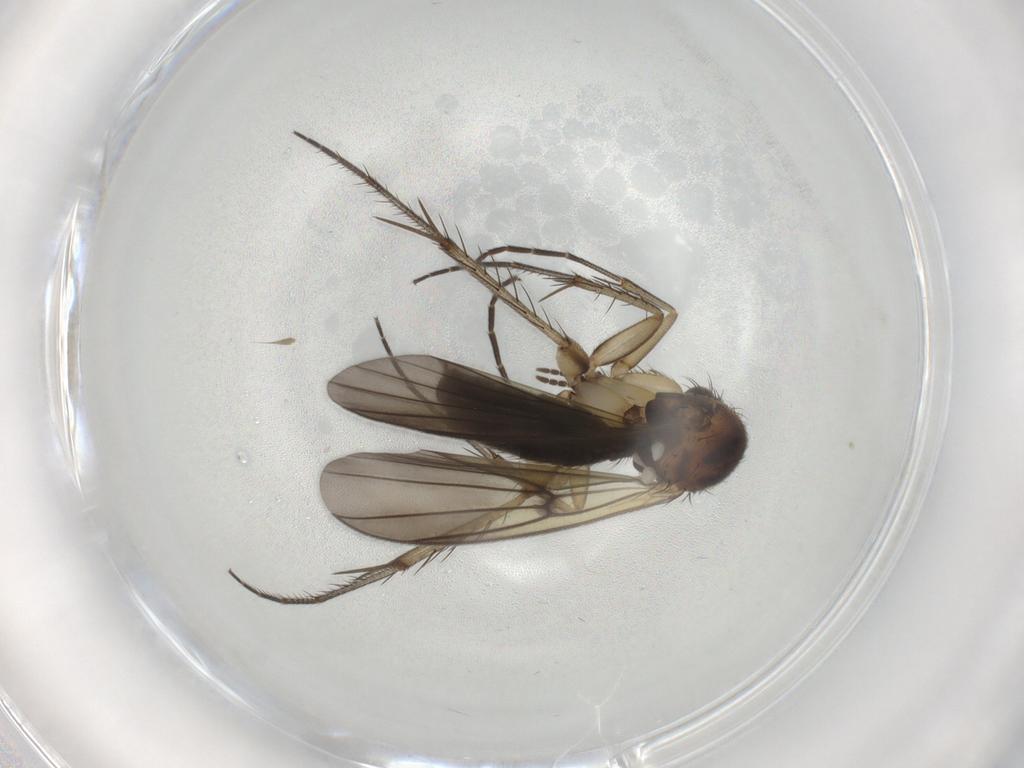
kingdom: Animalia
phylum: Arthropoda
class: Insecta
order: Diptera
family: Mycetophilidae
